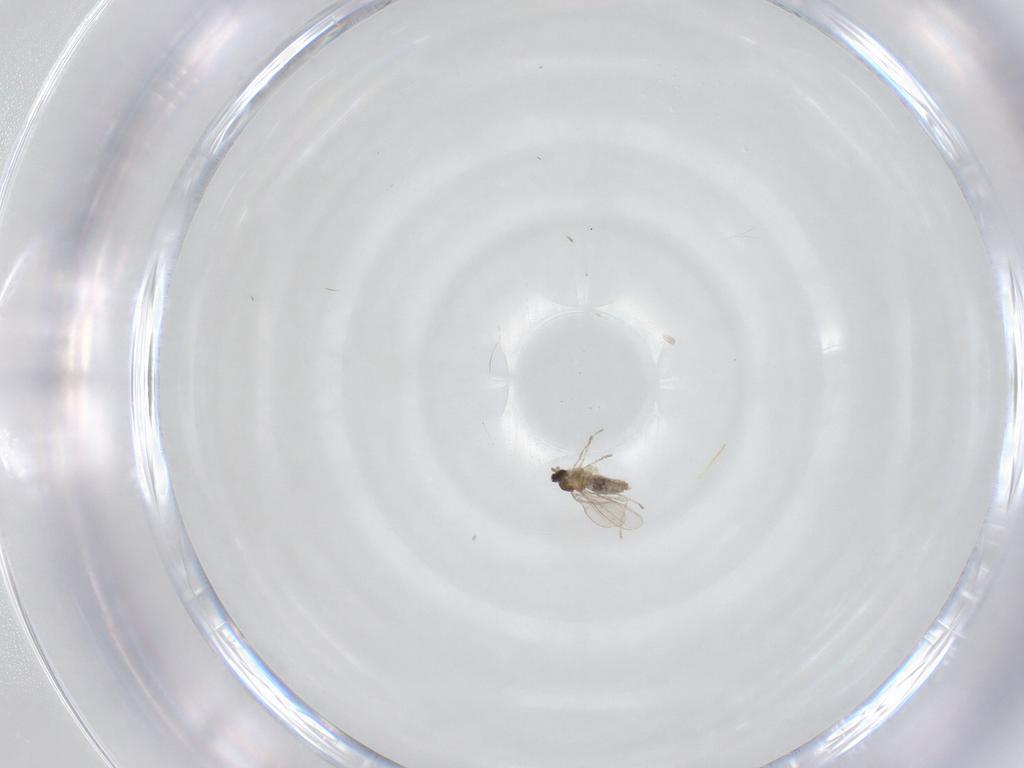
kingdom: Animalia
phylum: Arthropoda
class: Insecta
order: Diptera
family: Cecidomyiidae
